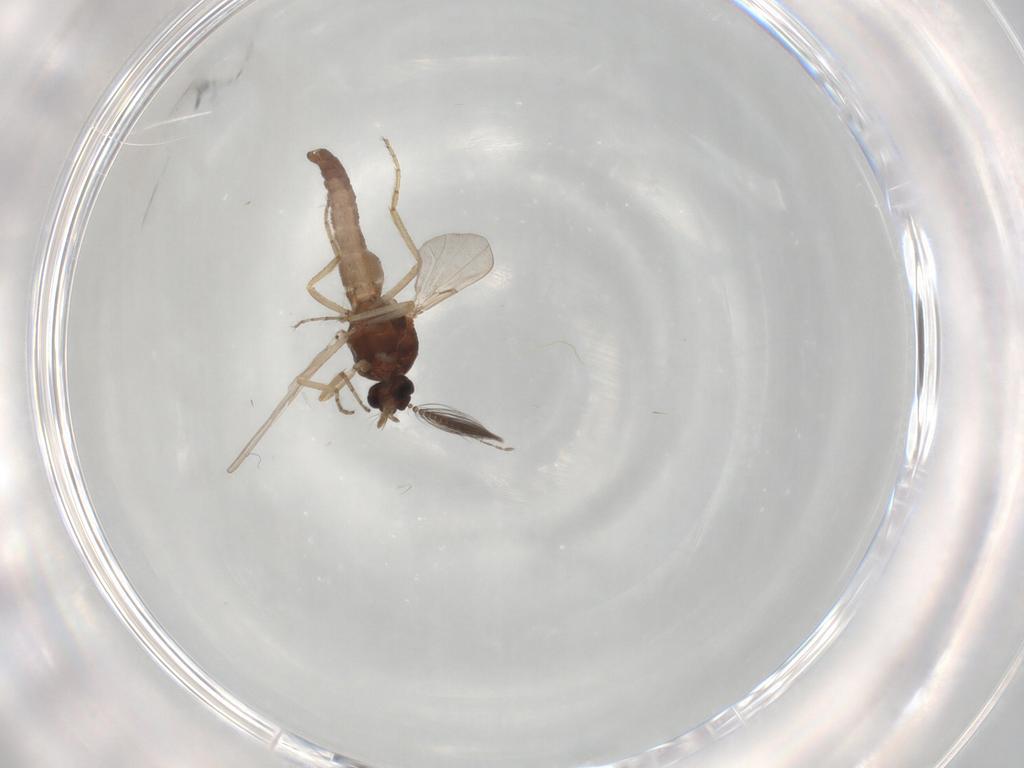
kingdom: Animalia
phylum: Arthropoda
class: Insecta
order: Diptera
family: Ceratopogonidae
